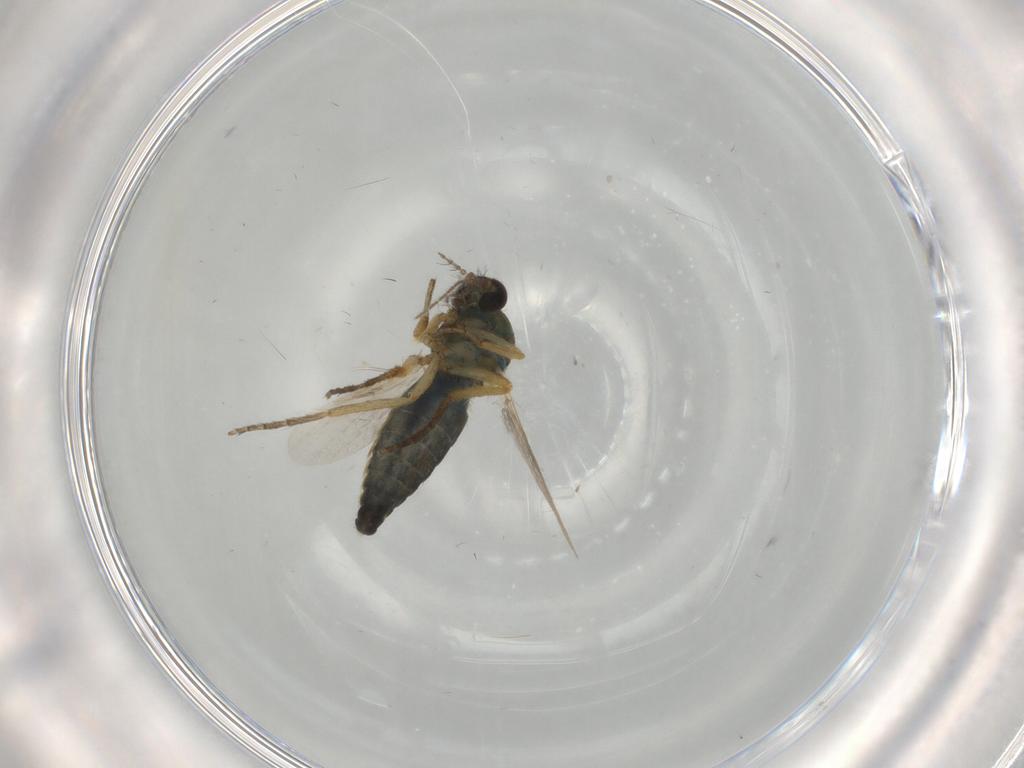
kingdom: Animalia
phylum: Arthropoda
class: Insecta
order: Diptera
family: Ceratopogonidae
